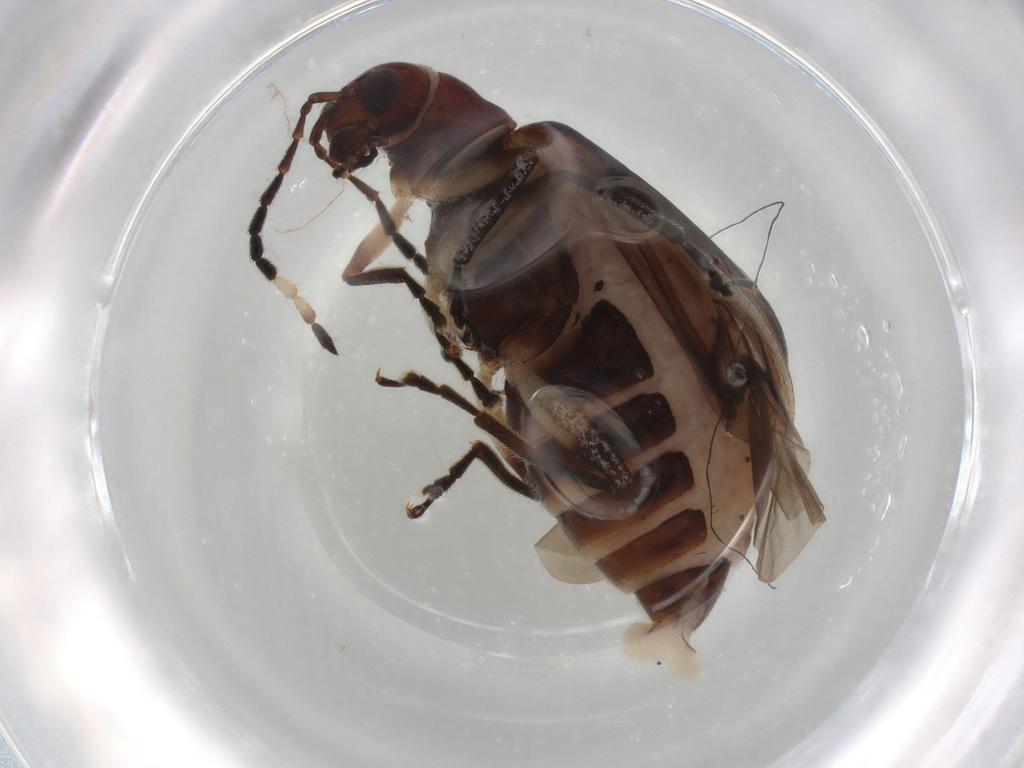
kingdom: Animalia
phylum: Arthropoda
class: Insecta
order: Coleoptera
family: Chrysomelidae
